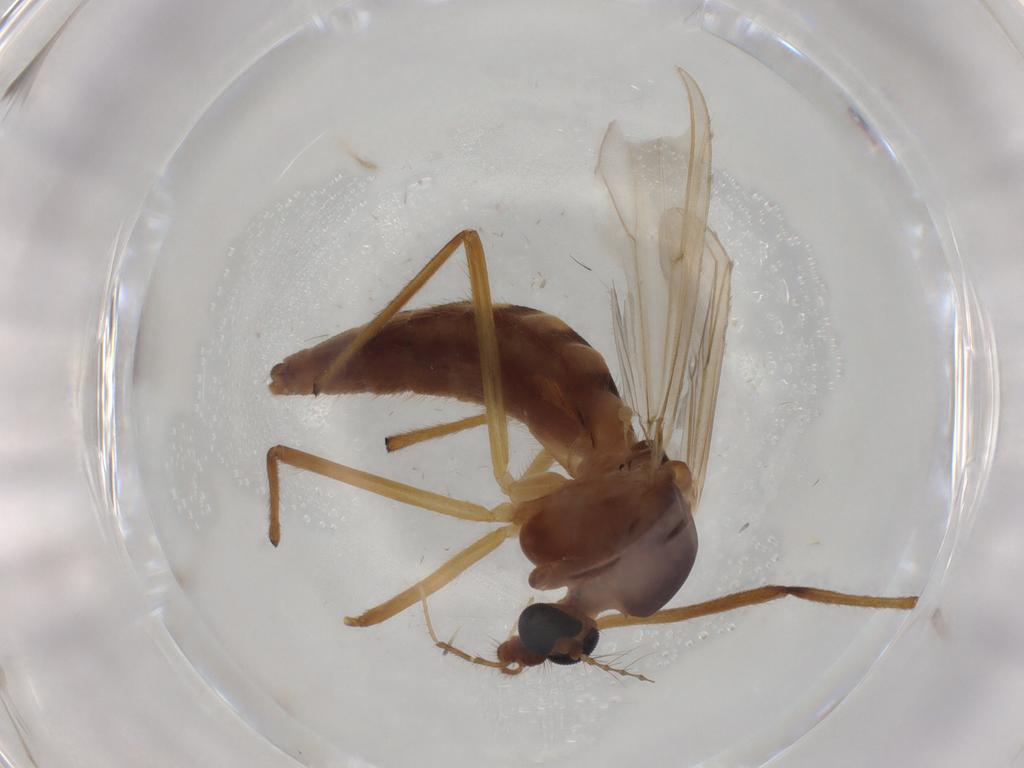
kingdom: Animalia
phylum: Arthropoda
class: Insecta
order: Diptera
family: Chironomidae
